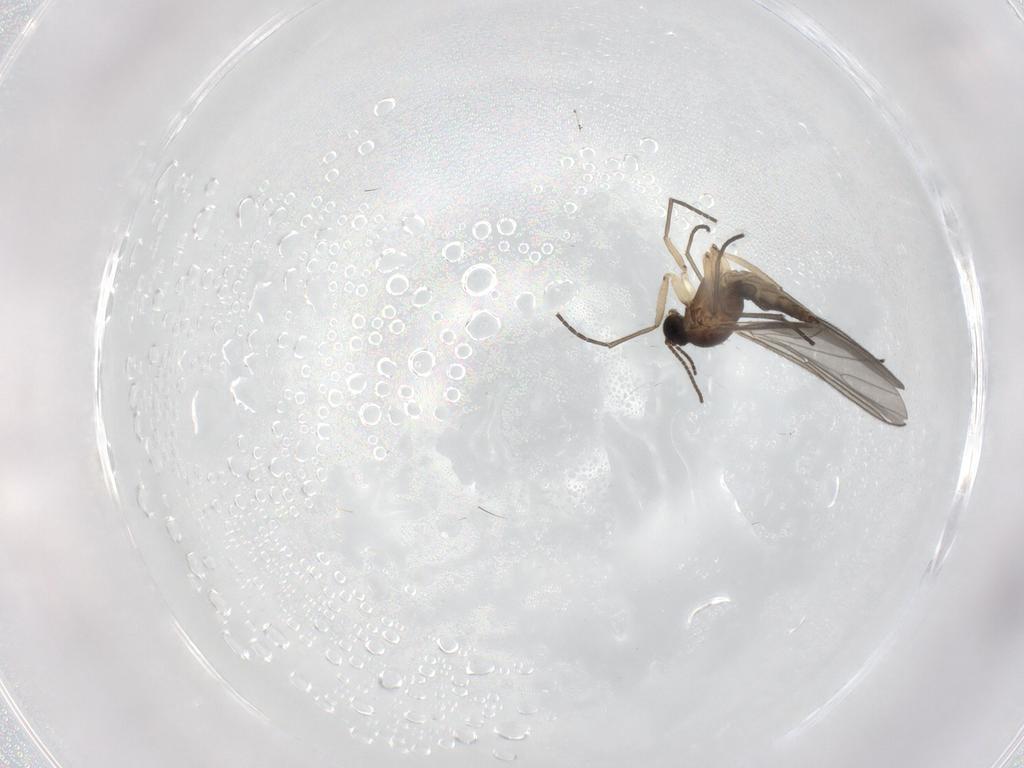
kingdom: Animalia
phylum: Arthropoda
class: Insecta
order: Diptera
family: Sciaridae
